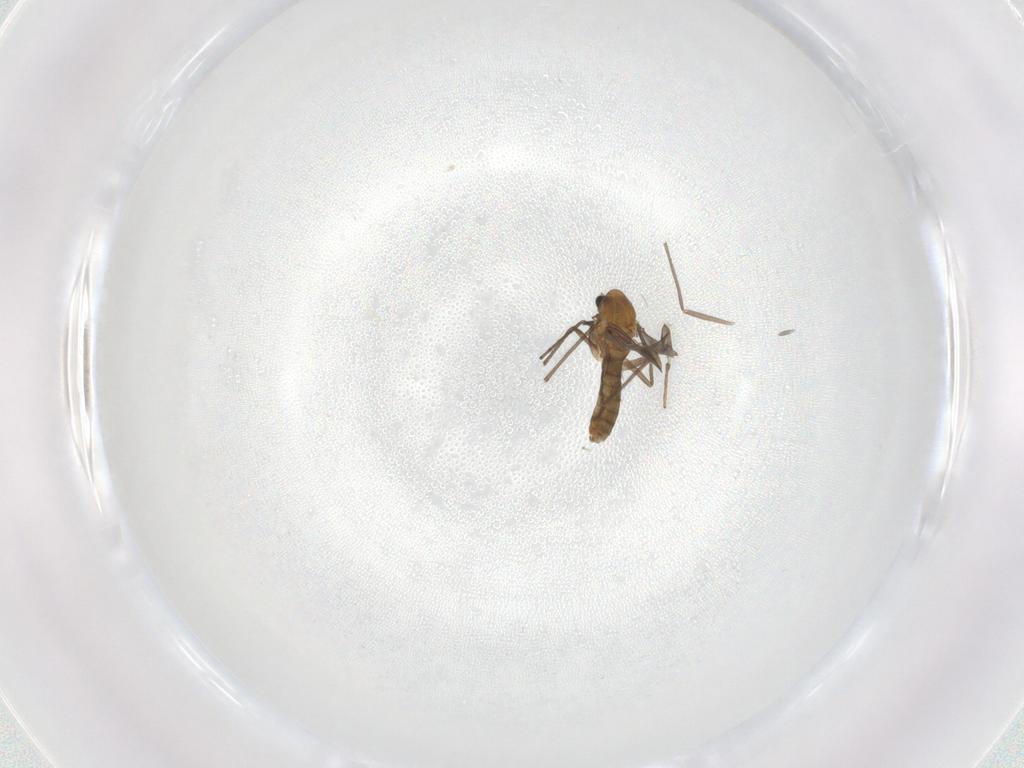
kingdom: Animalia
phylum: Arthropoda
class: Insecta
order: Diptera
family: Chironomidae
